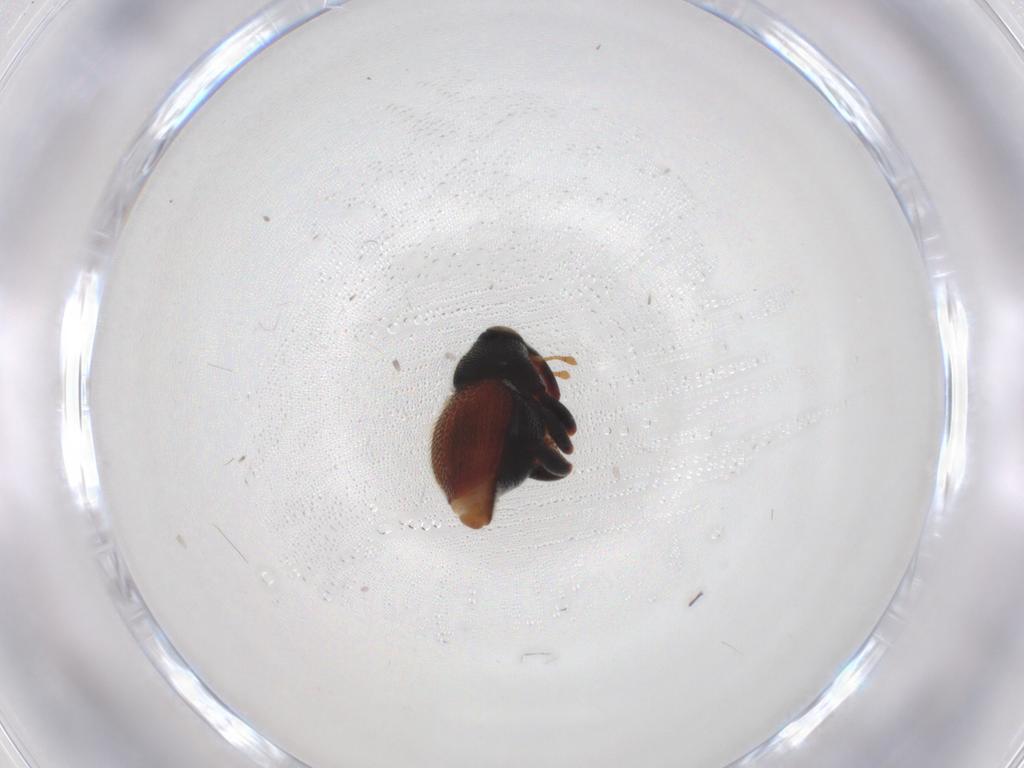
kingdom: Animalia
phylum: Arthropoda
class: Insecta
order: Coleoptera
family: Curculionidae
